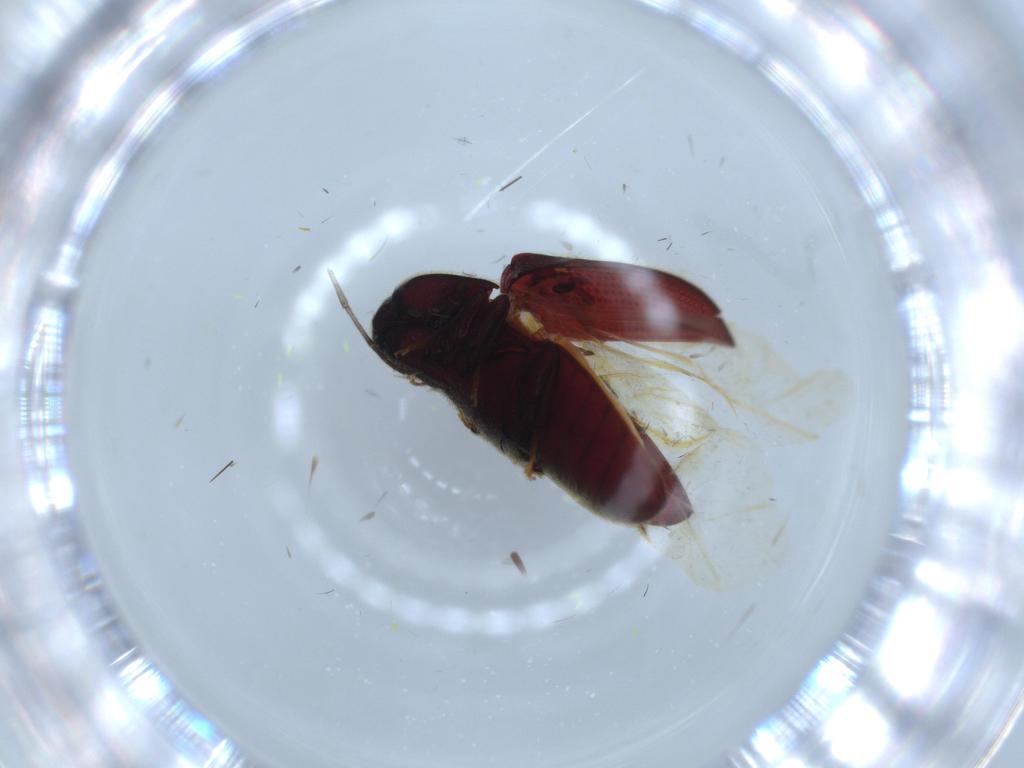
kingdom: Animalia
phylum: Arthropoda
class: Insecta
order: Coleoptera
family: Throscidae
